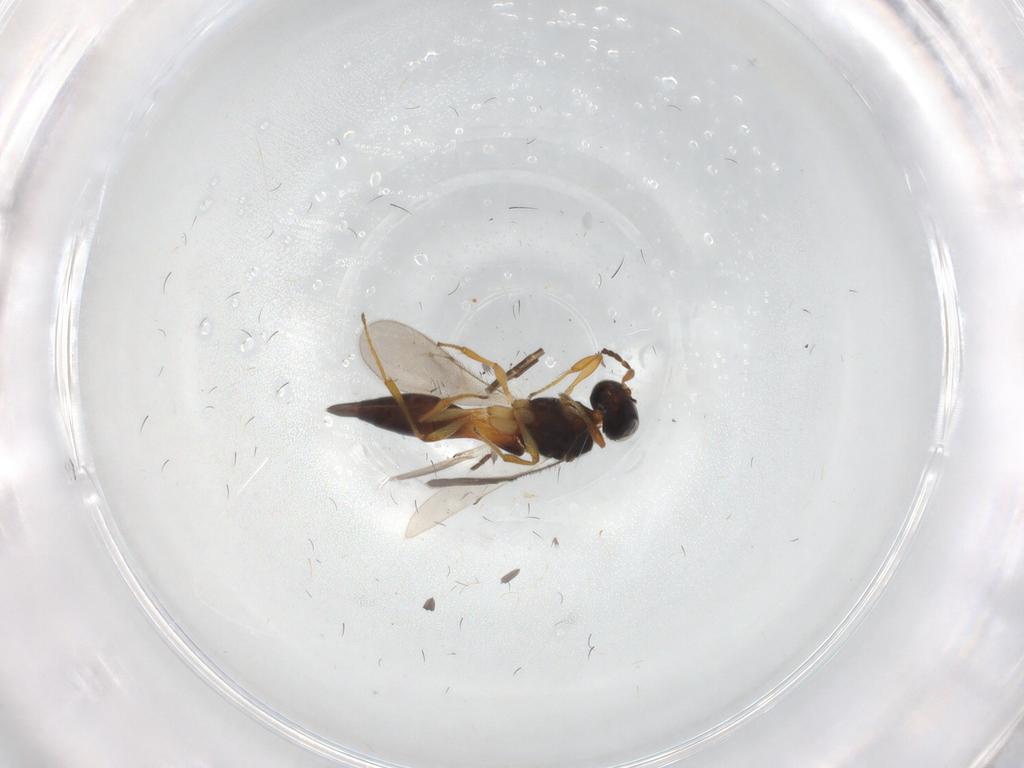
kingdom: Animalia
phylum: Arthropoda
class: Insecta
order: Hymenoptera
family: Scelionidae
